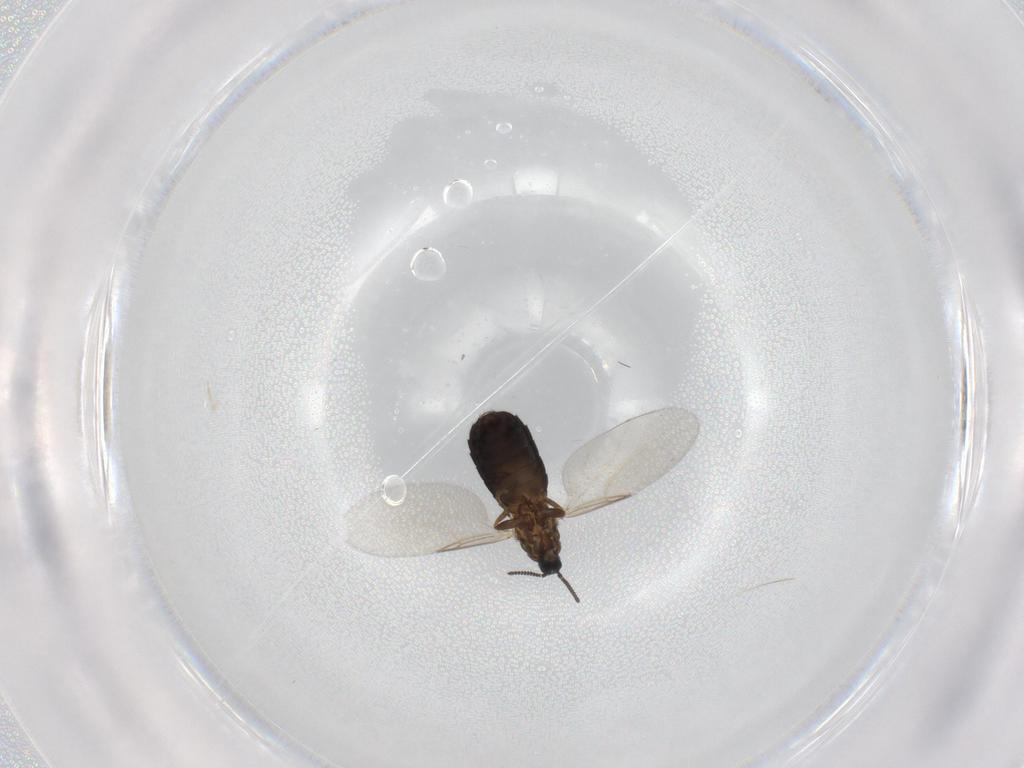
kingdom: Animalia
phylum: Arthropoda
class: Insecta
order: Diptera
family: Scatopsidae
